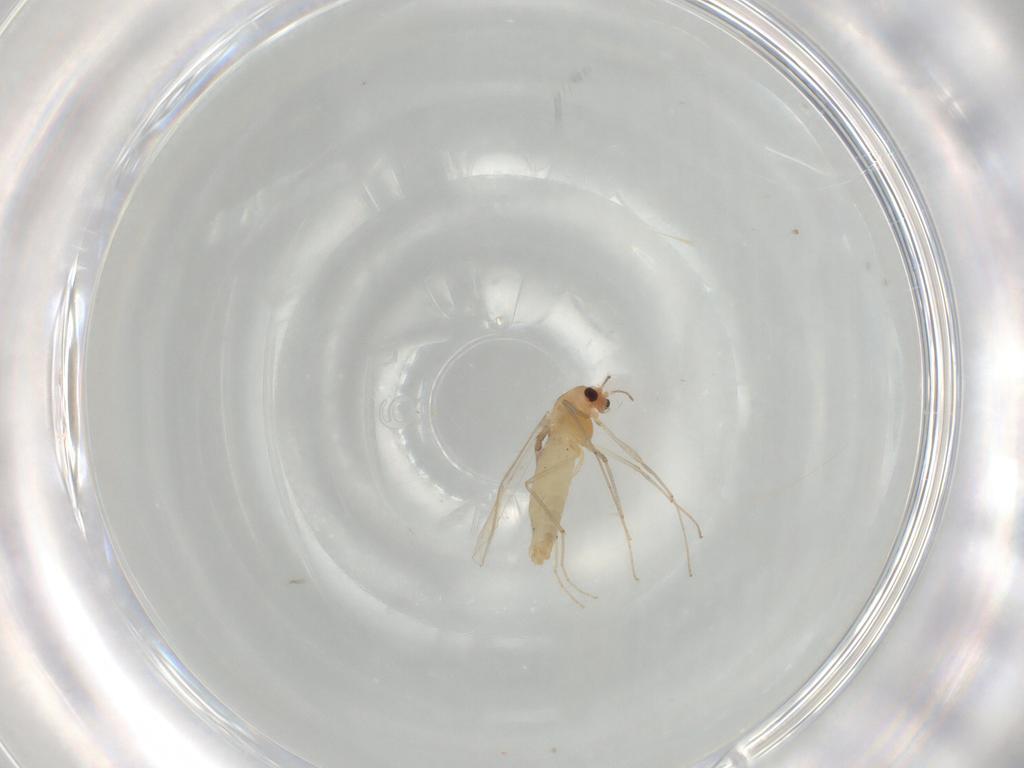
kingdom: Animalia
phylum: Arthropoda
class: Insecta
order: Diptera
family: Chironomidae
